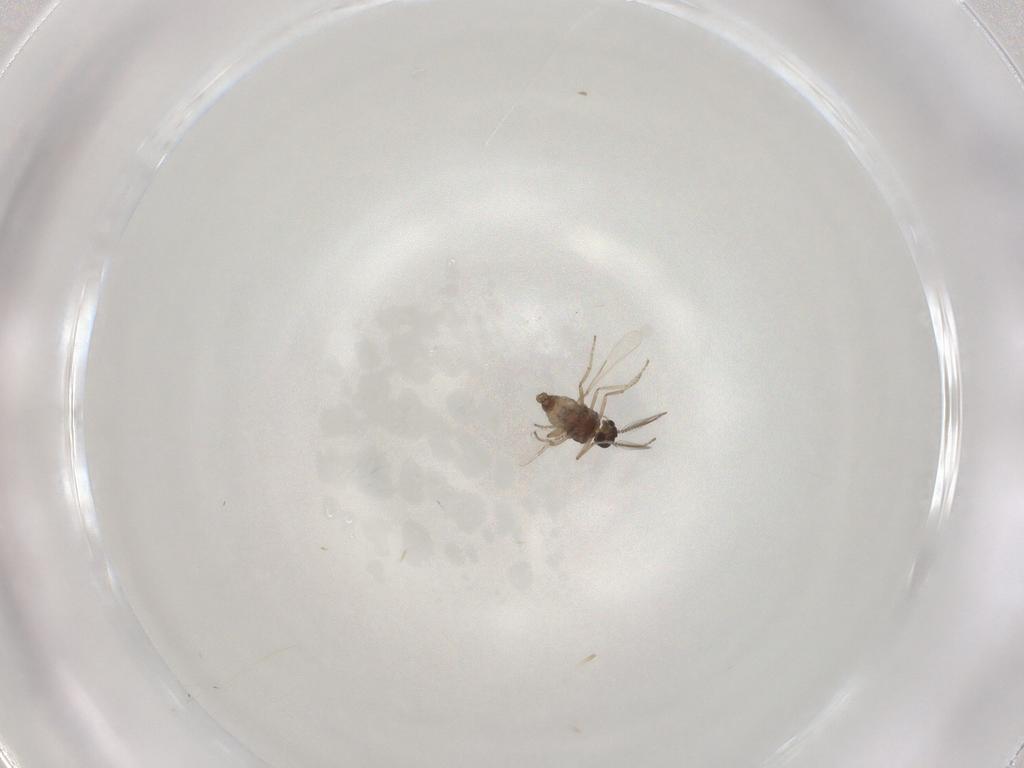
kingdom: Animalia
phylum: Arthropoda
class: Insecta
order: Diptera
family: Ceratopogonidae
